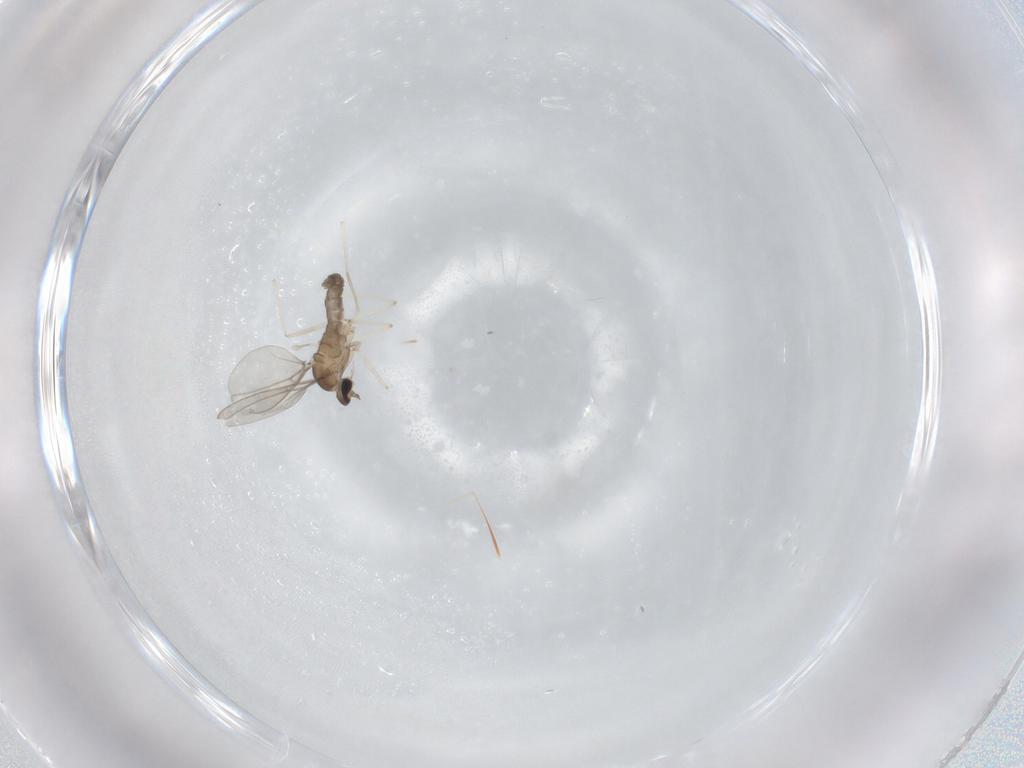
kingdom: Animalia
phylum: Arthropoda
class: Insecta
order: Diptera
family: Cecidomyiidae
